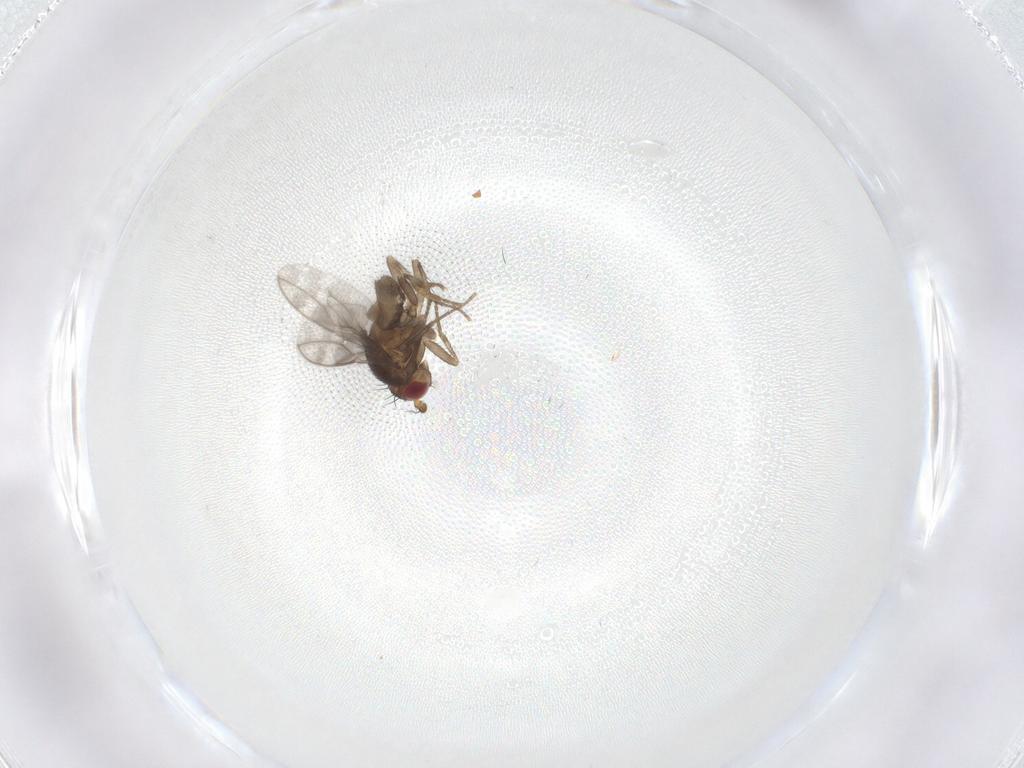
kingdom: Animalia
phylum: Arthropoda
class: Insecta
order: Diptera
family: Sphaeroceridae
